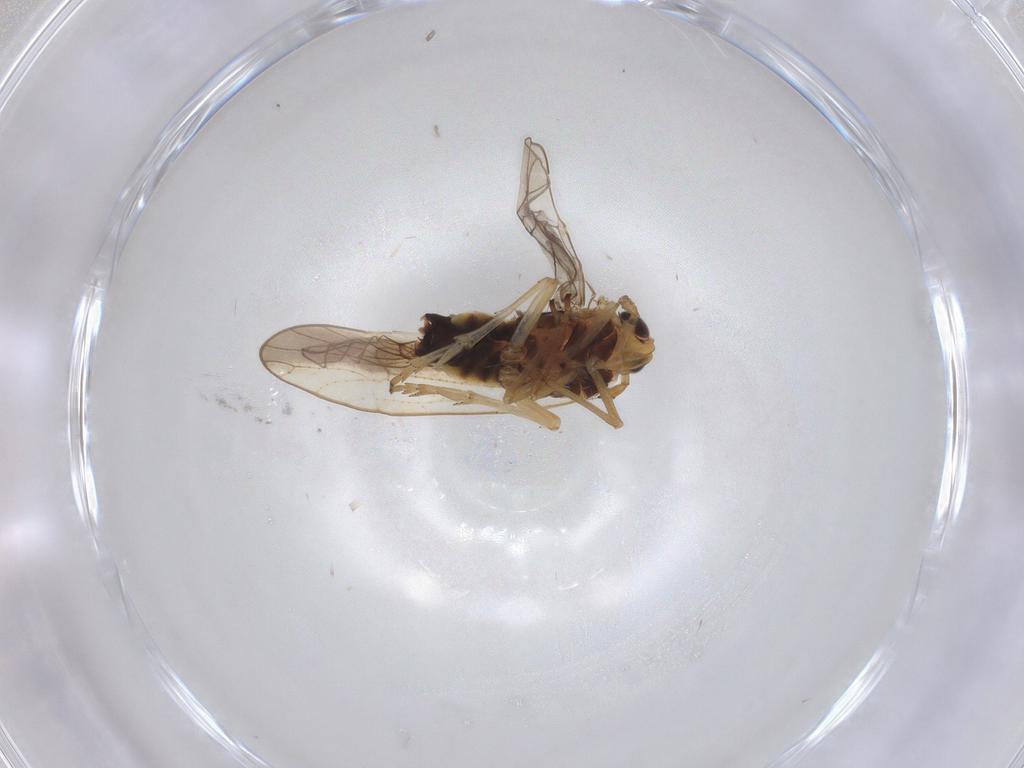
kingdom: Animalia
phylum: Arthropoda
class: Insecta
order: Hemiptera
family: Delphacidae
